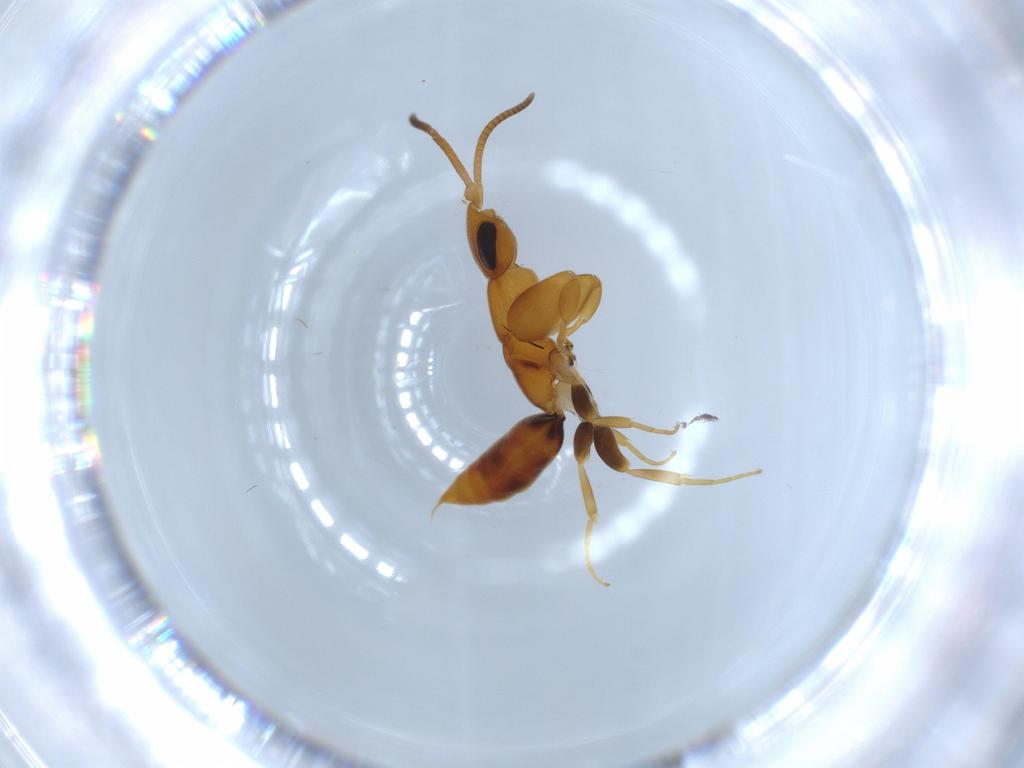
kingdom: Animalia
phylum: Arthropoda
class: Insecta
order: Hymenoptera
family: Sclerogibbidae
